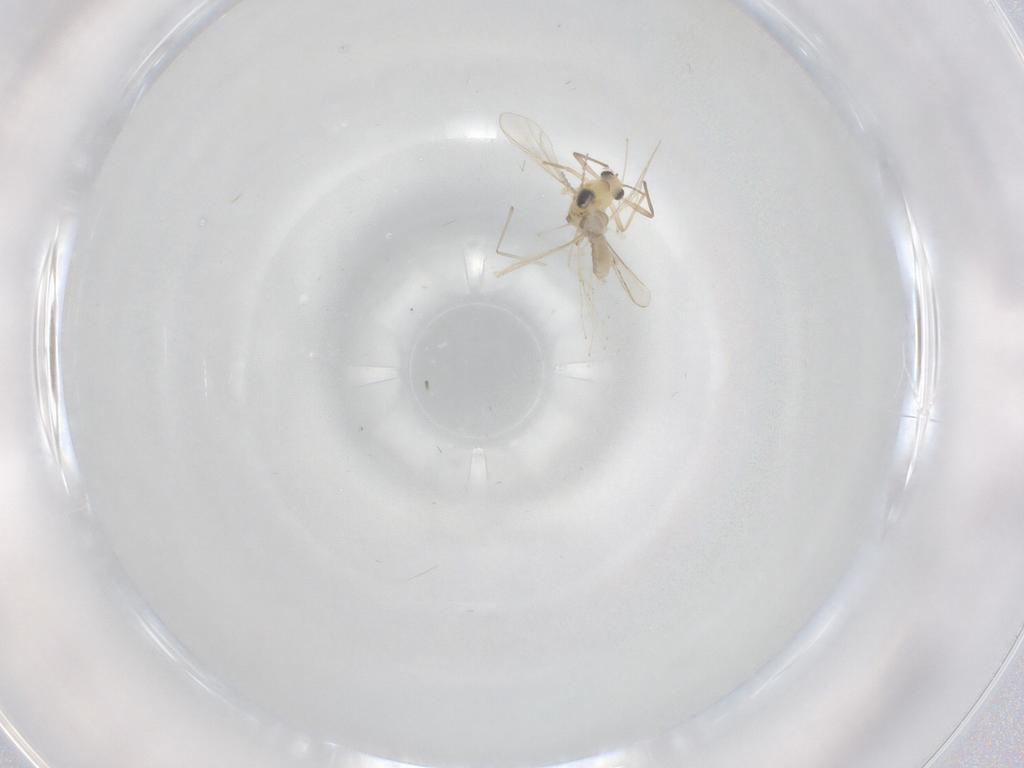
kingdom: Animalia
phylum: Arthropoda
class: Insecta
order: Diptera
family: Chironomidae
